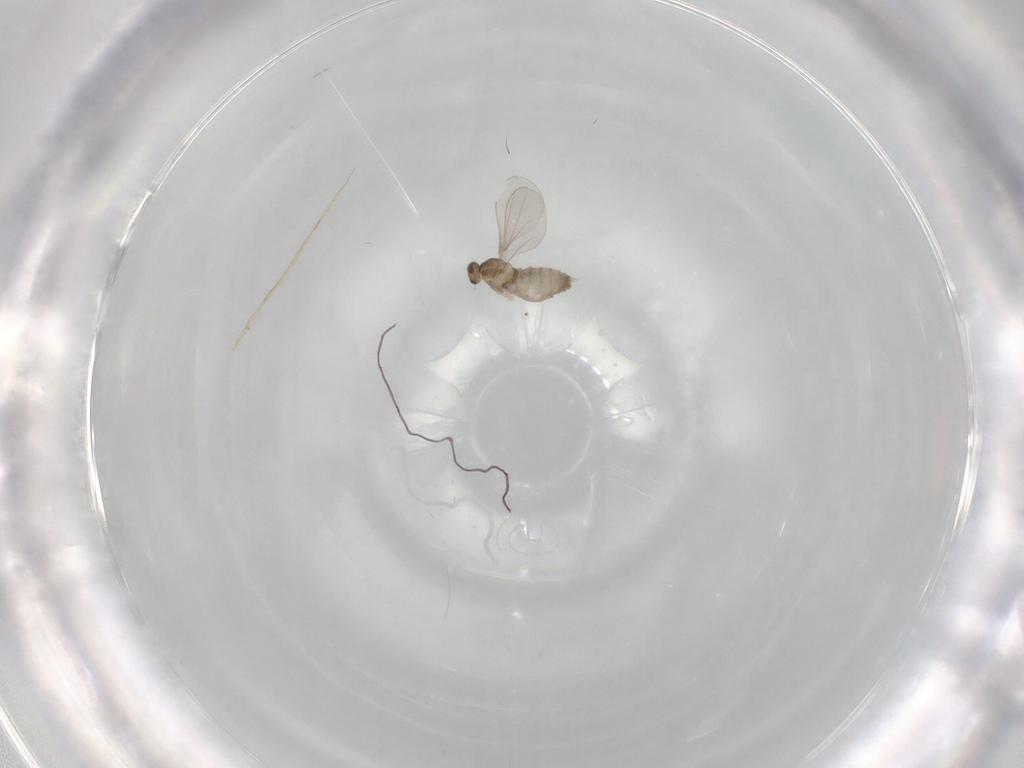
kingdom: Animalia
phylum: Arthropoda
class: Insecta
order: Diptera
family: Cecidomyiidae
